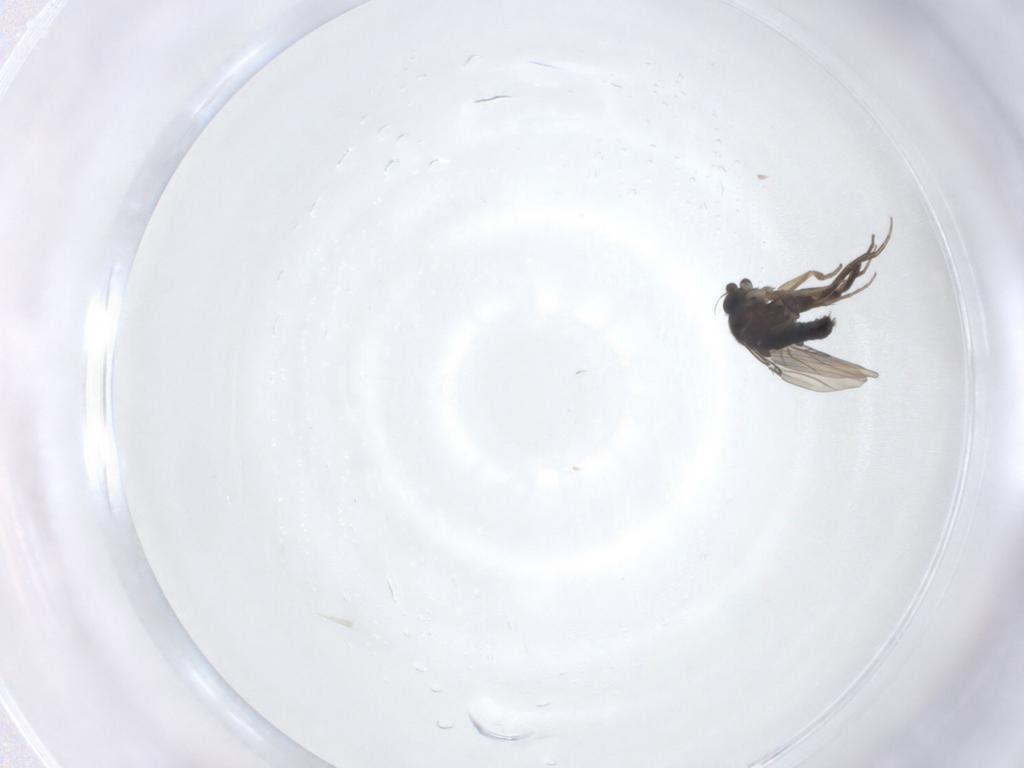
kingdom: Animalia
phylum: Arthropoda
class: Insecta
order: Diptera
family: Phoridae
